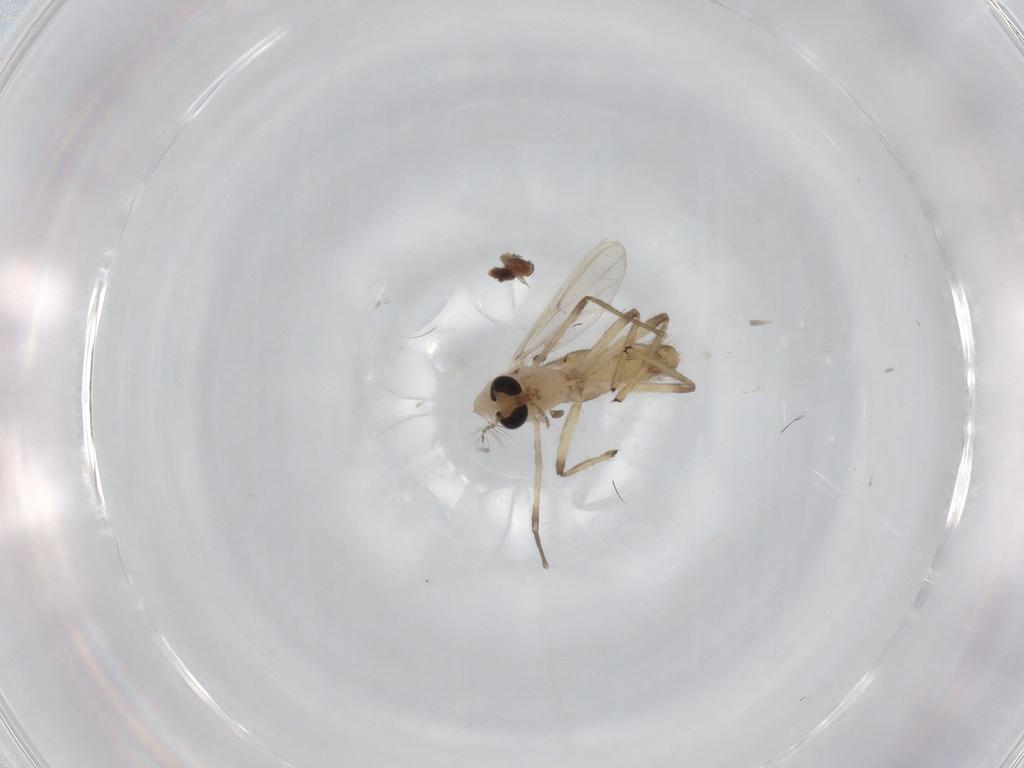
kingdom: Animalia
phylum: Arthropoda
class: Insecta
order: Diptera
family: Chironomidae
